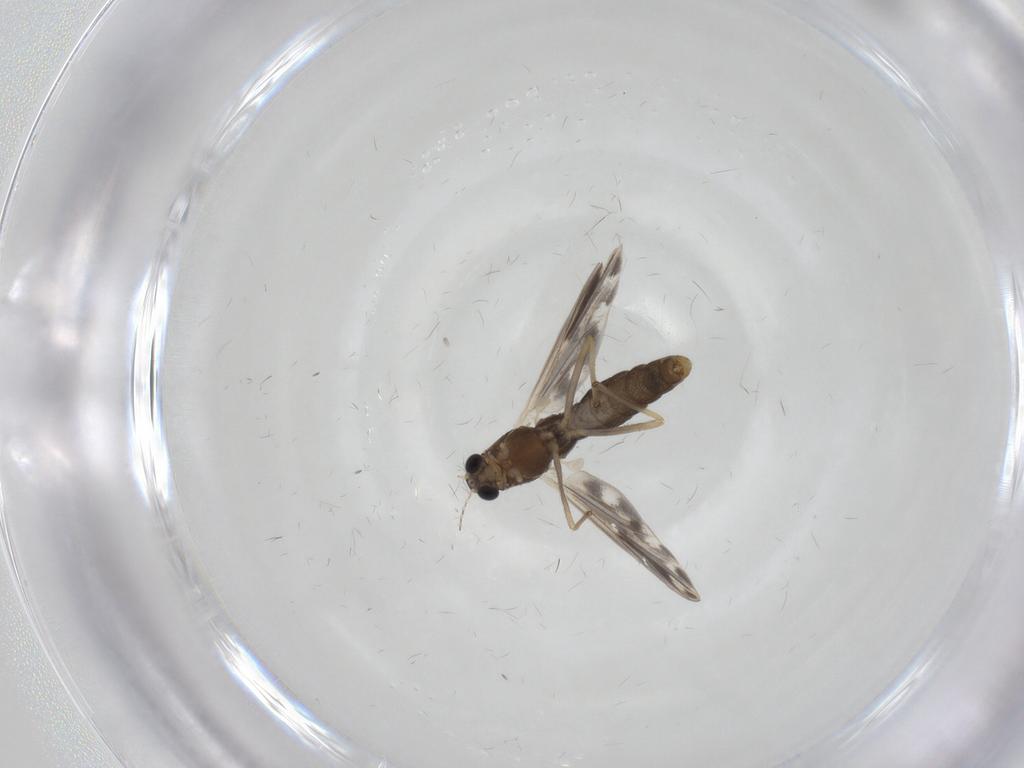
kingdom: Animalia
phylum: Arthropoda
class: Insecta
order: Diptera
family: Chironomidae
